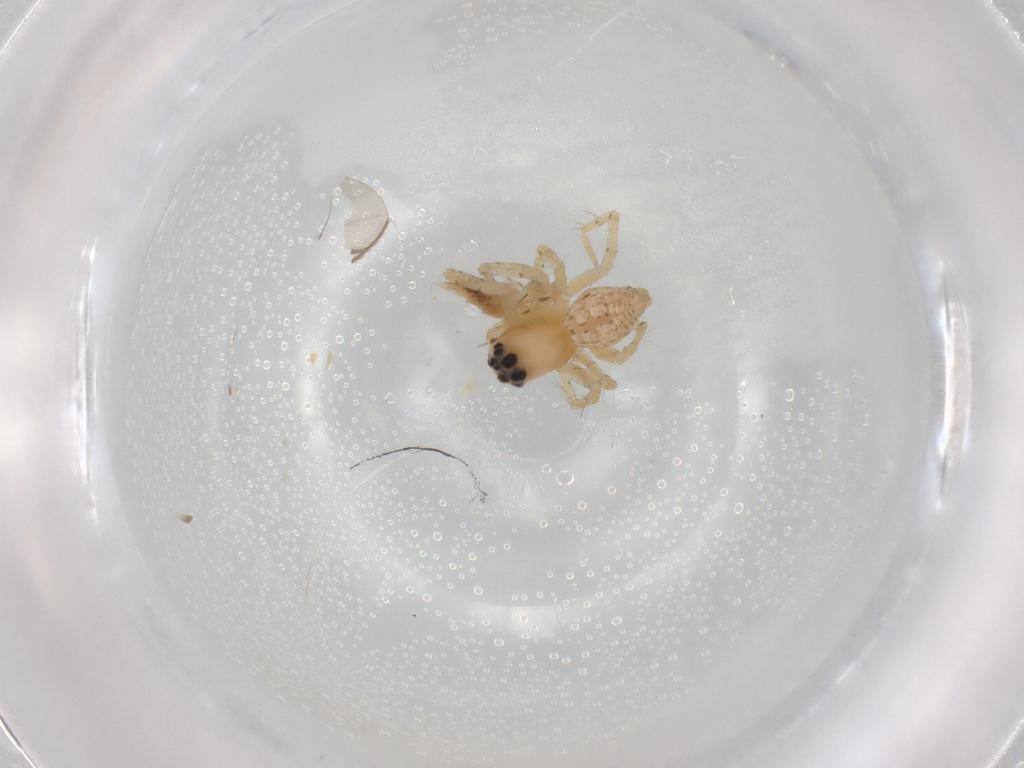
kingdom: Animalia
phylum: Arthropoda
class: Arachnida
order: Araneae
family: Oxyopidae
